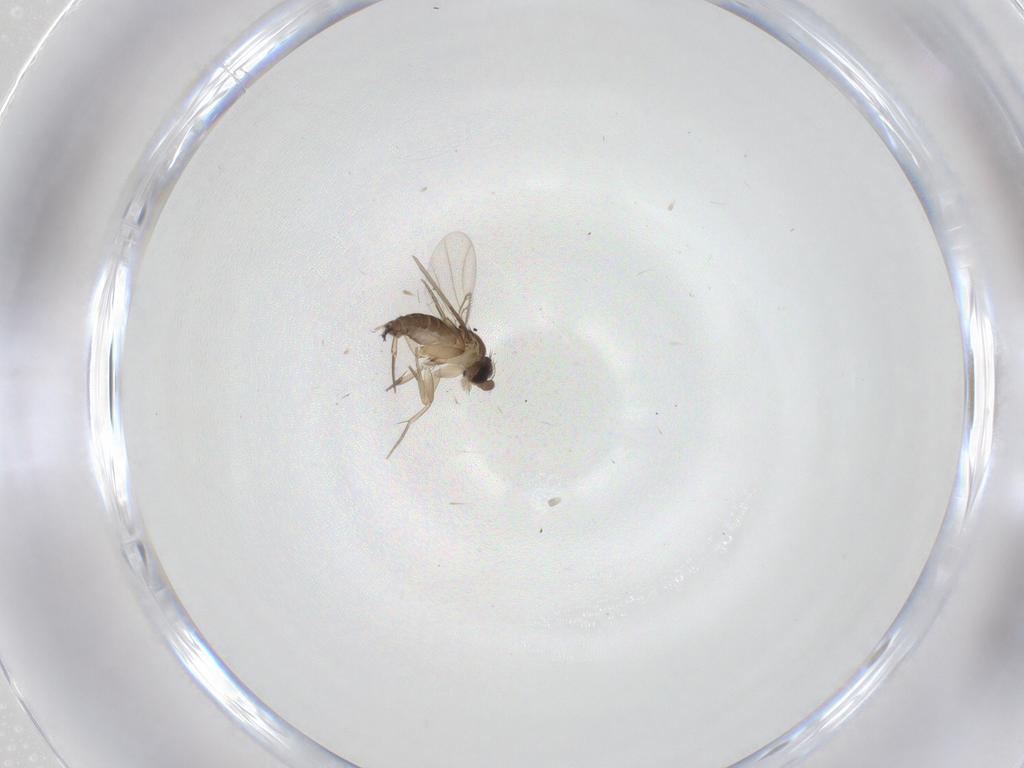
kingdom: Animalia
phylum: Arthropoda
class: Insecta
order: Diptera
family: Phoridae
